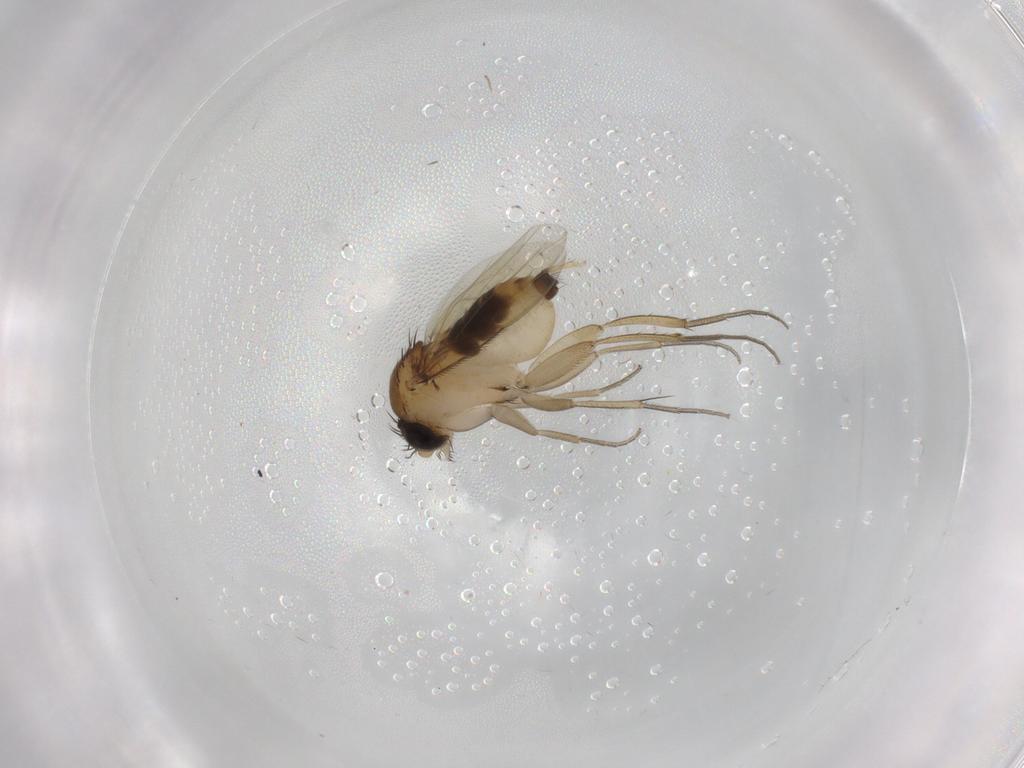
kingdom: Animalia
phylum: Arthropoda
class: Insecta
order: Diptera
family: Phoridae
